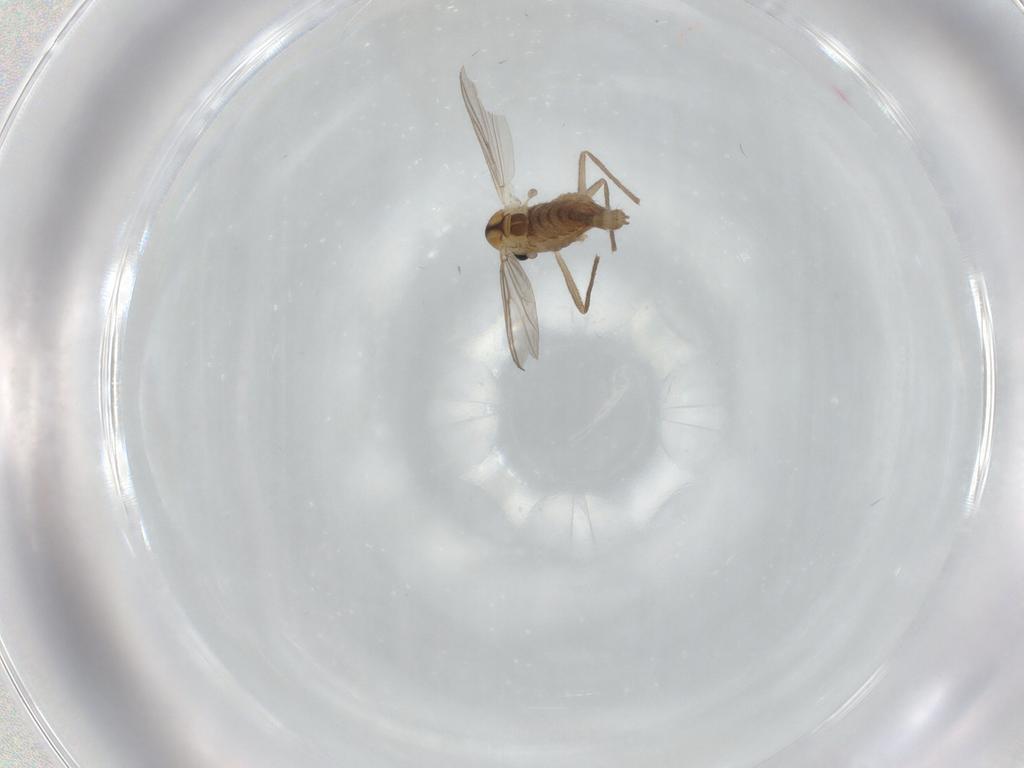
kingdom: Animalia
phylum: Arthropoda
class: Insecta
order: Diptera
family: Chironomidae
